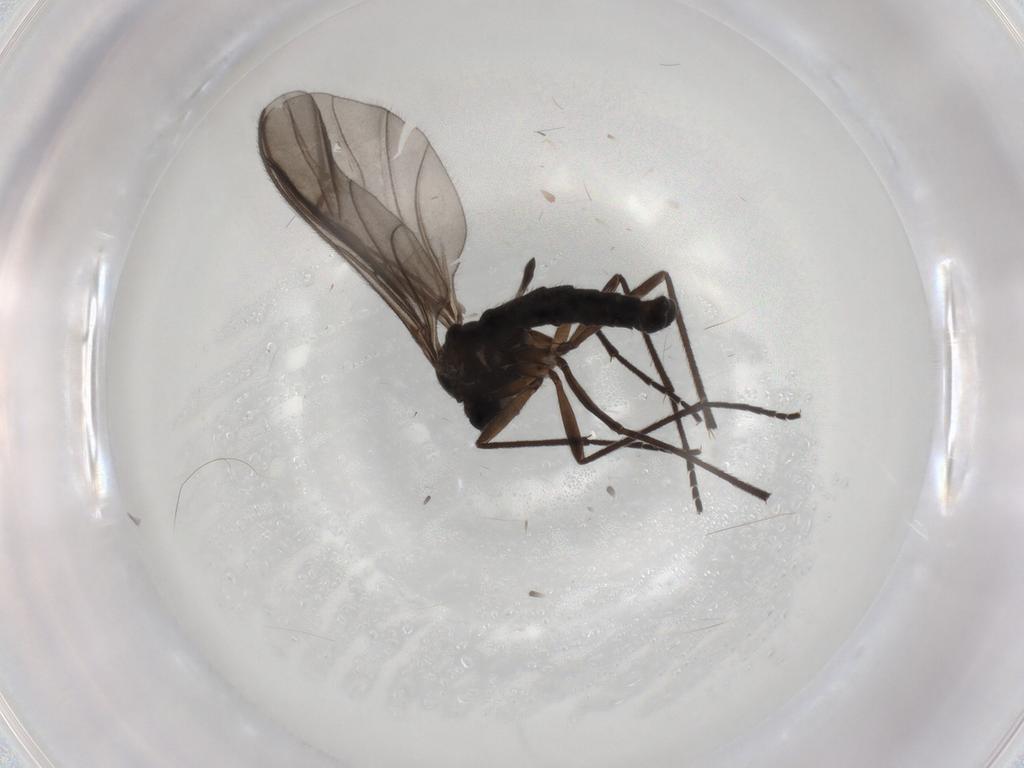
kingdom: Animalia
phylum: Arthropoda
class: Insecta
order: Diptera
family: Sciaridae
